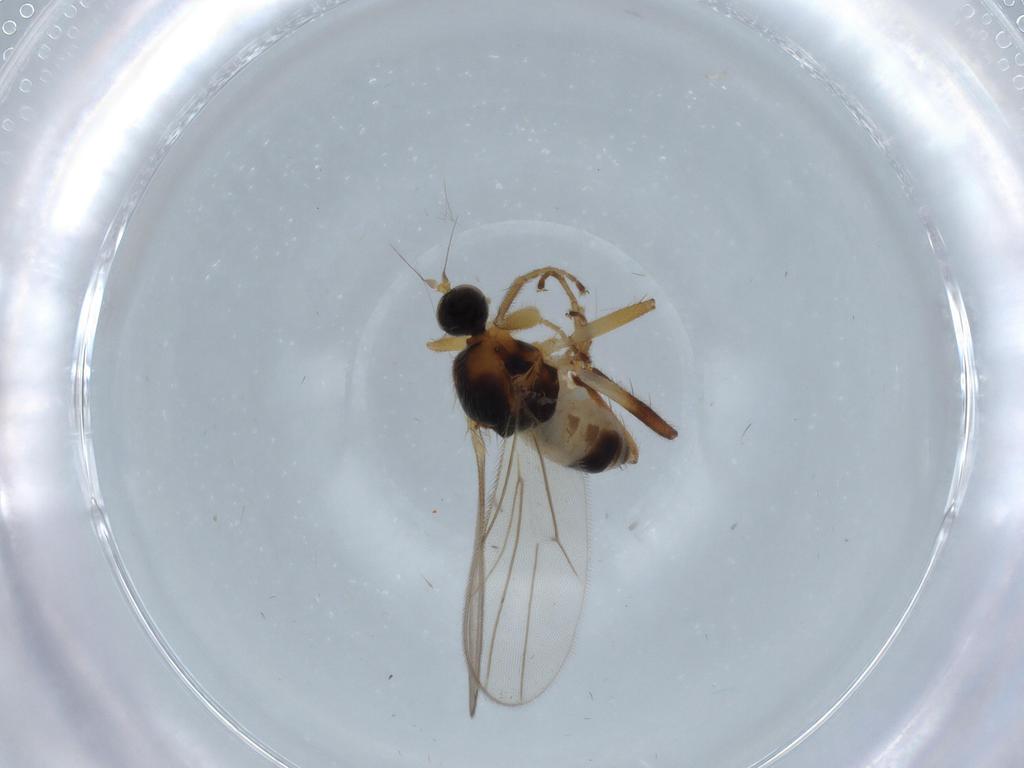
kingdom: Animalia
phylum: Arthropoda
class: Insecta
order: Diptera
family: Hybotidae
